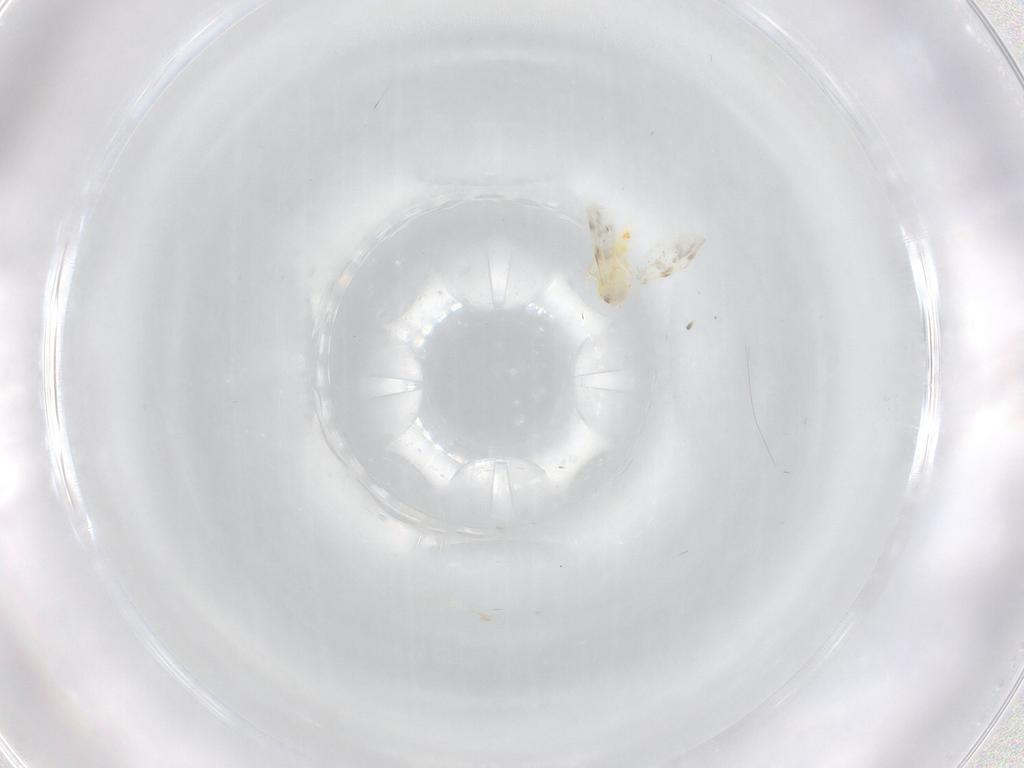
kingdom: Animalia
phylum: Arthropoda
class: Insecta
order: Hemiptera
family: Aleyrodidae
